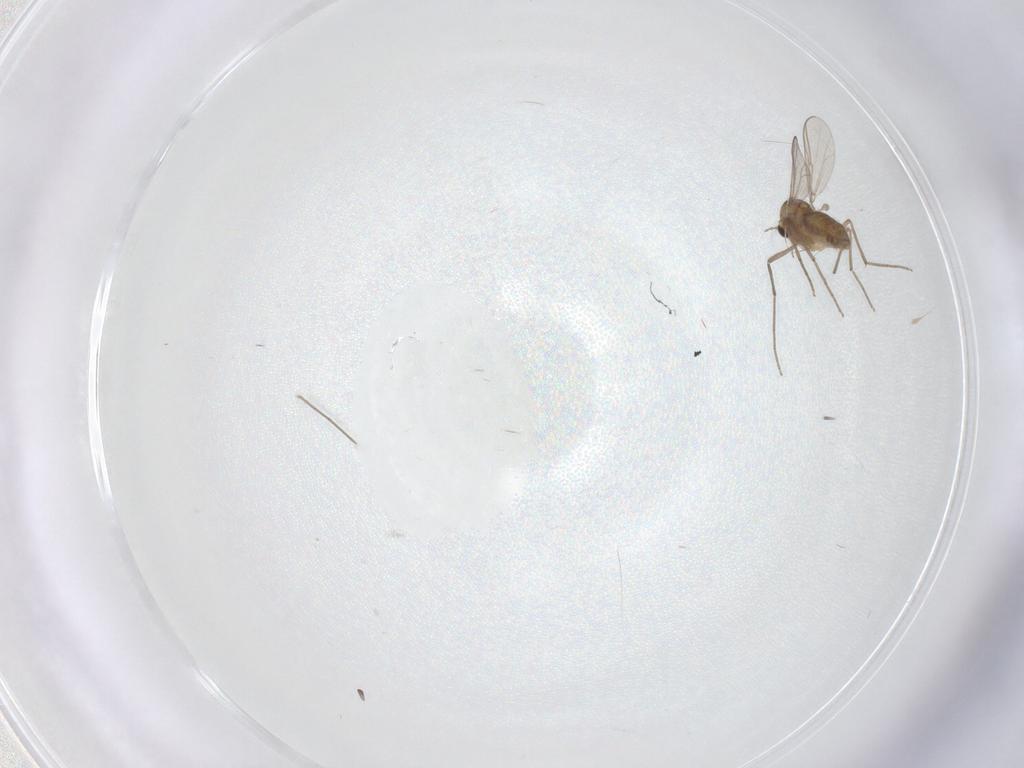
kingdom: Animalia
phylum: Arthropoda
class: Insecta
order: Diptera
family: Chironomidae
